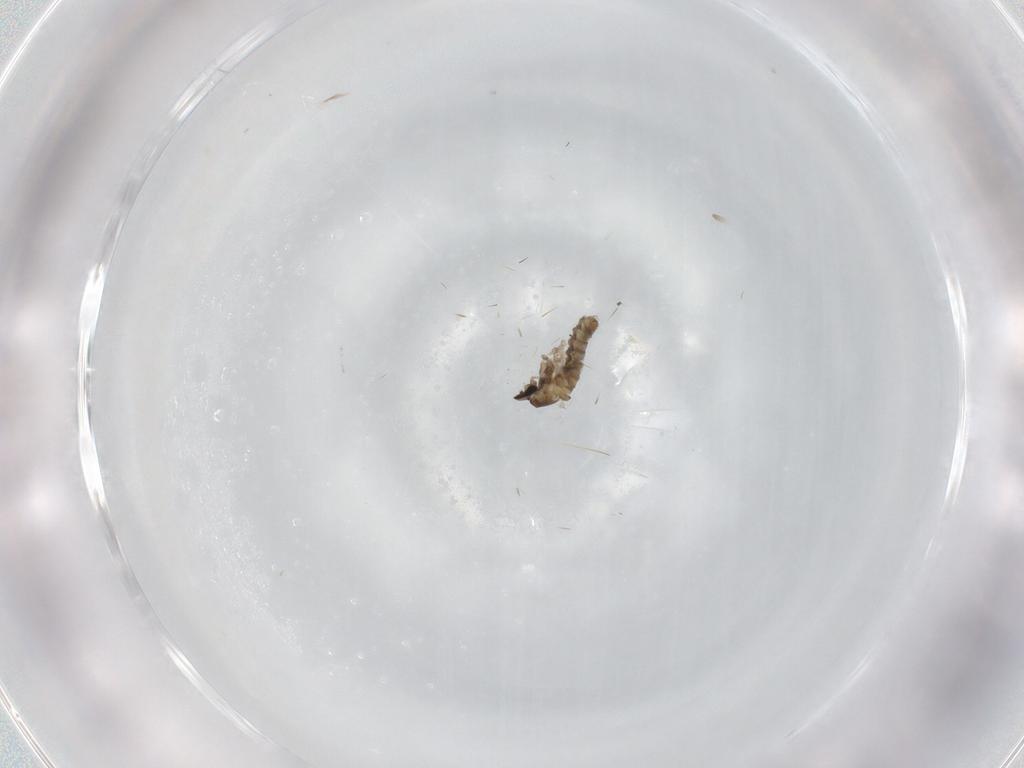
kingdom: Animalia
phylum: Arthropoda
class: Insecta
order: Diptera
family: Cecidomyiidae
